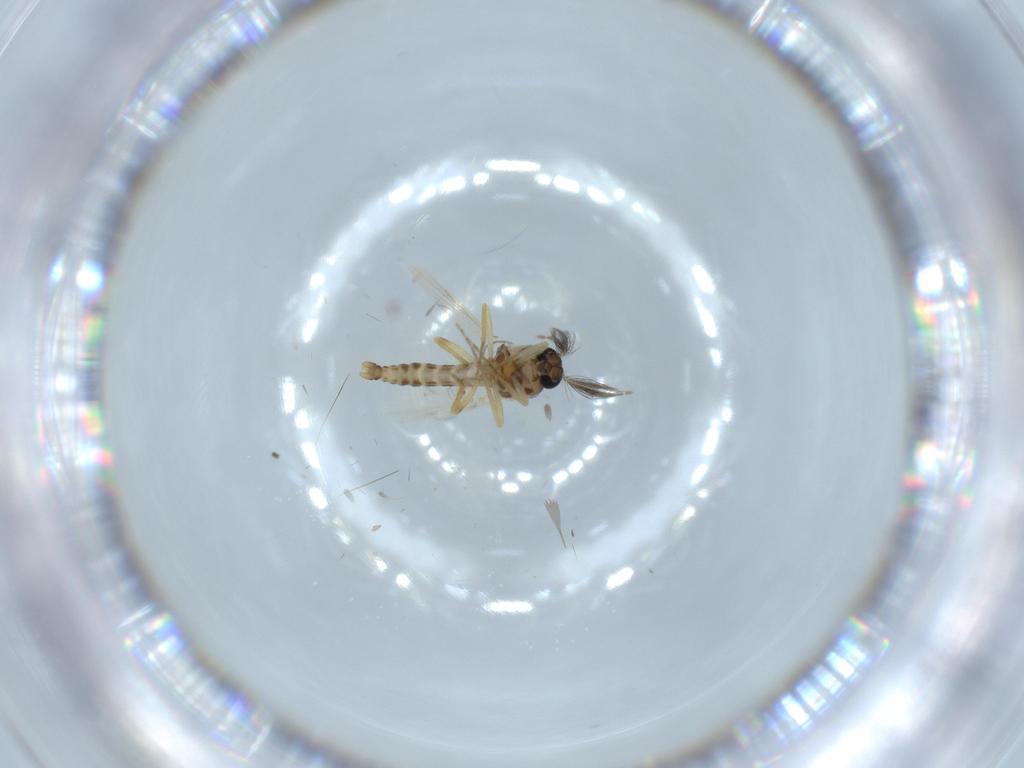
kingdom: Animalia
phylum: Arthropoda
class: Insecta
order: Diptera
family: Ceratopogonidae
